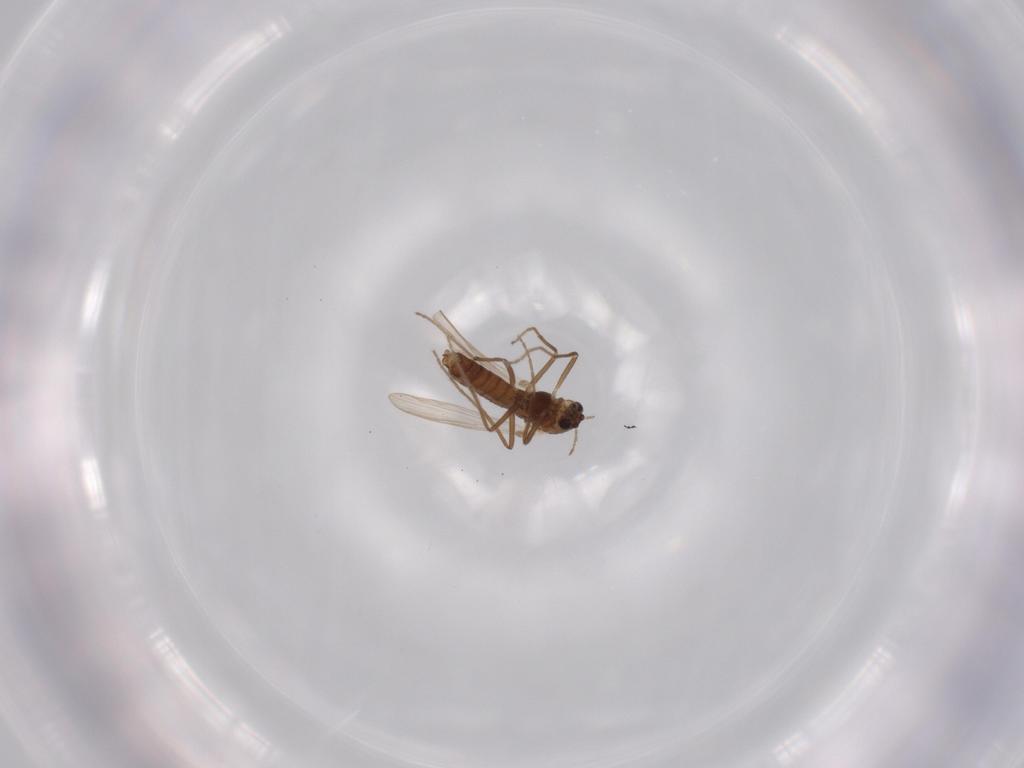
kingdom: Animalia
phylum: Arthropoda
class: Insecta
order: Diptera
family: Chironomidae
